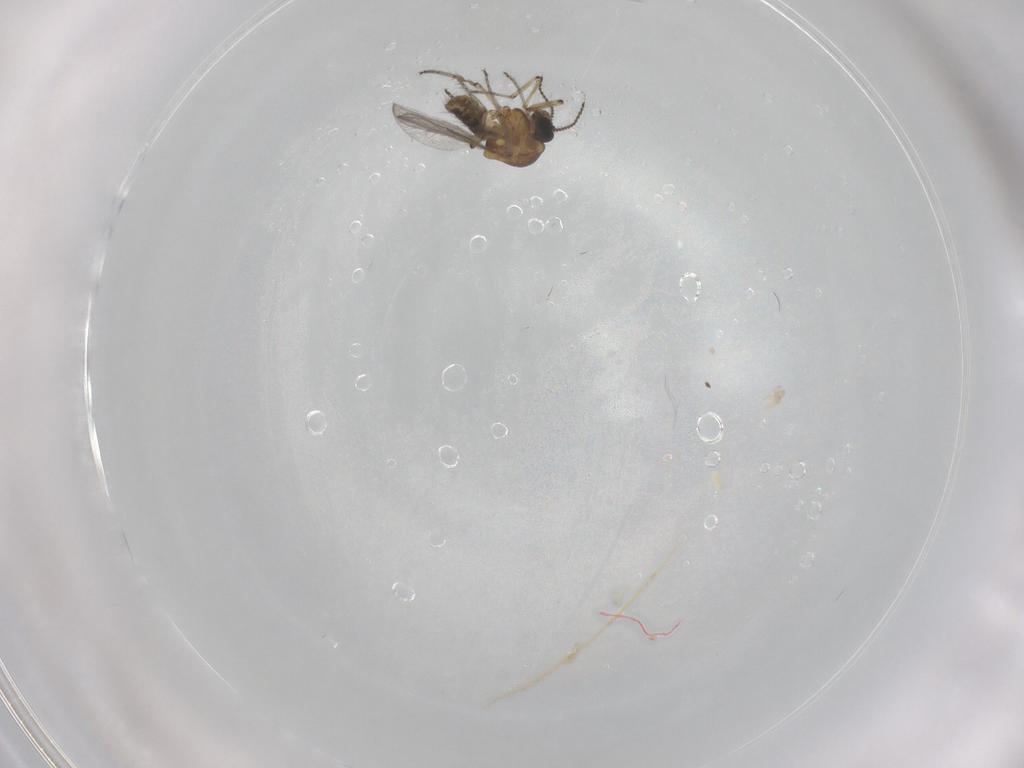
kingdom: Animalia
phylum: Arthropoda
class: Insecta
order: Diptera
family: Ceratopogonidae
